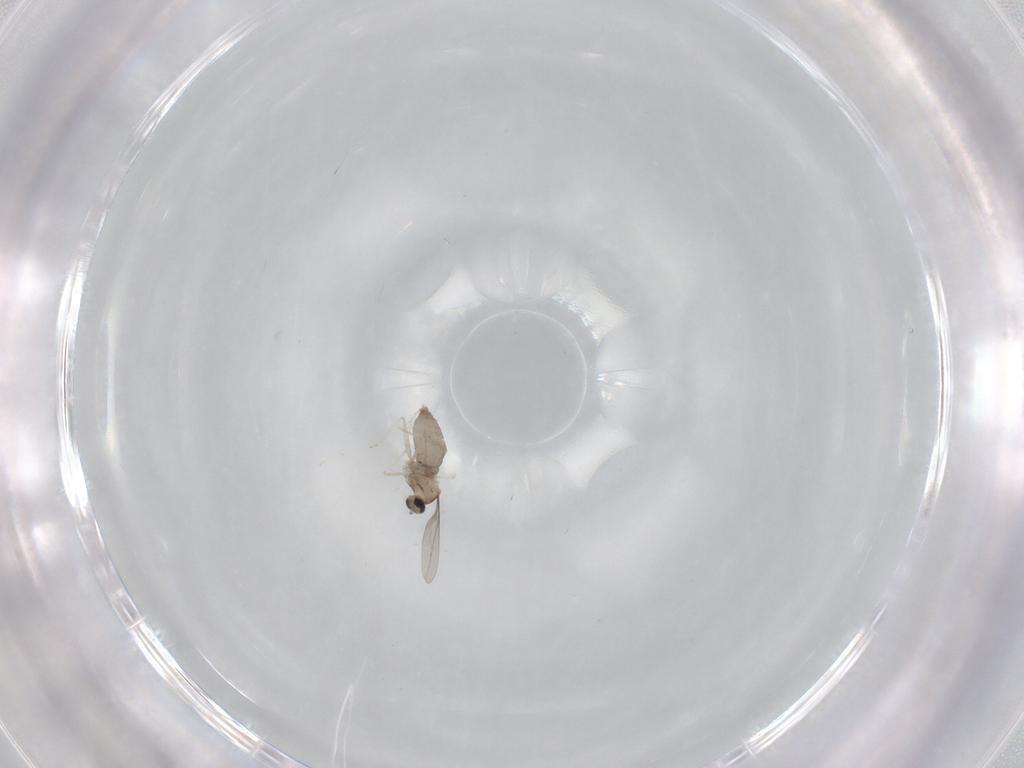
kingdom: Animalia
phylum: Arthropoda
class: Insecta
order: Diptera
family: Cecidomyiidae
